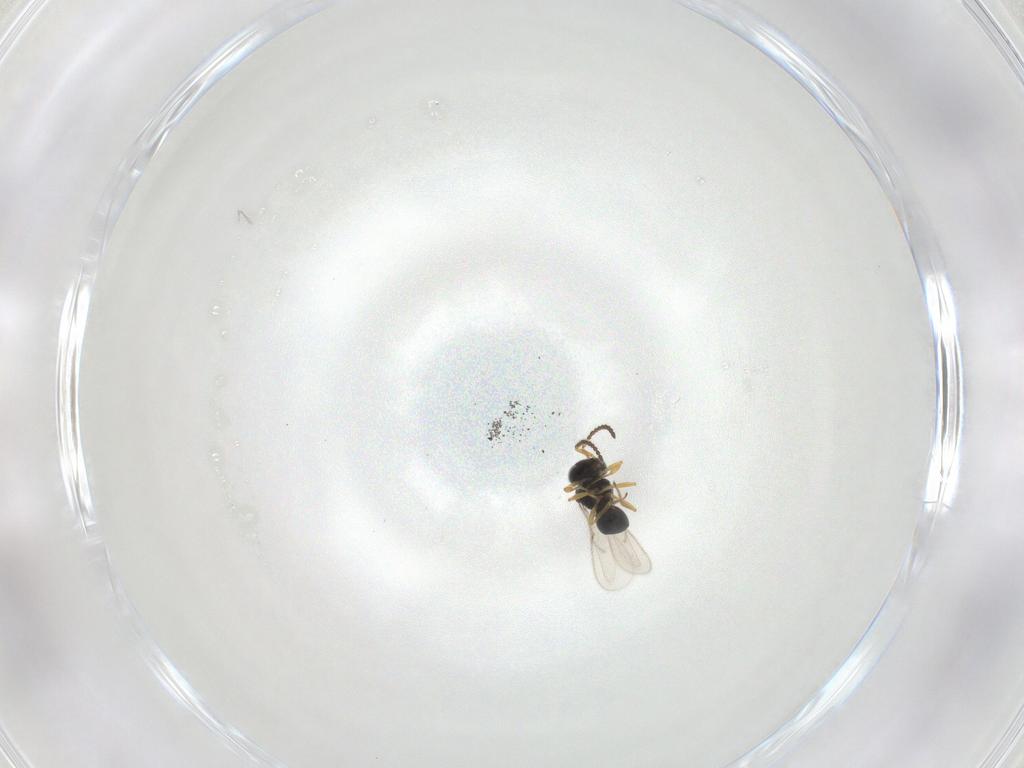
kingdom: Animalia
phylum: Arthropoda
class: Insecta
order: Hymenoptera
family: Scelionidae
